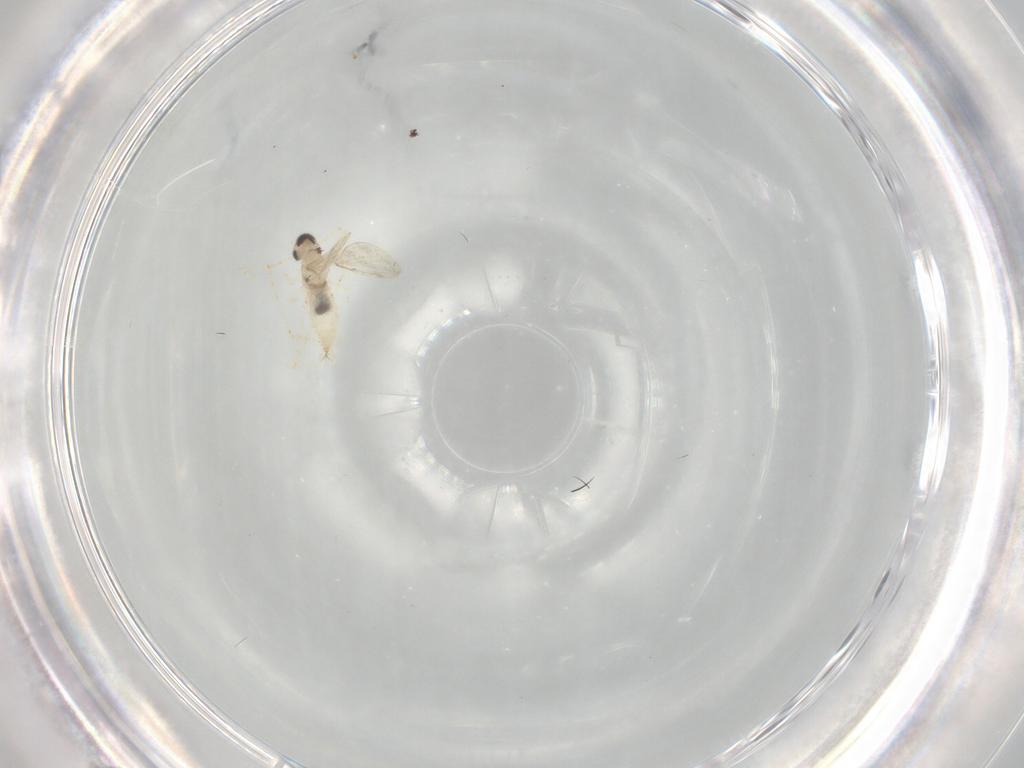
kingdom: Animalia
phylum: Arthropoda
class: Insecta
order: Diptera
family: Cecidomyiidae
